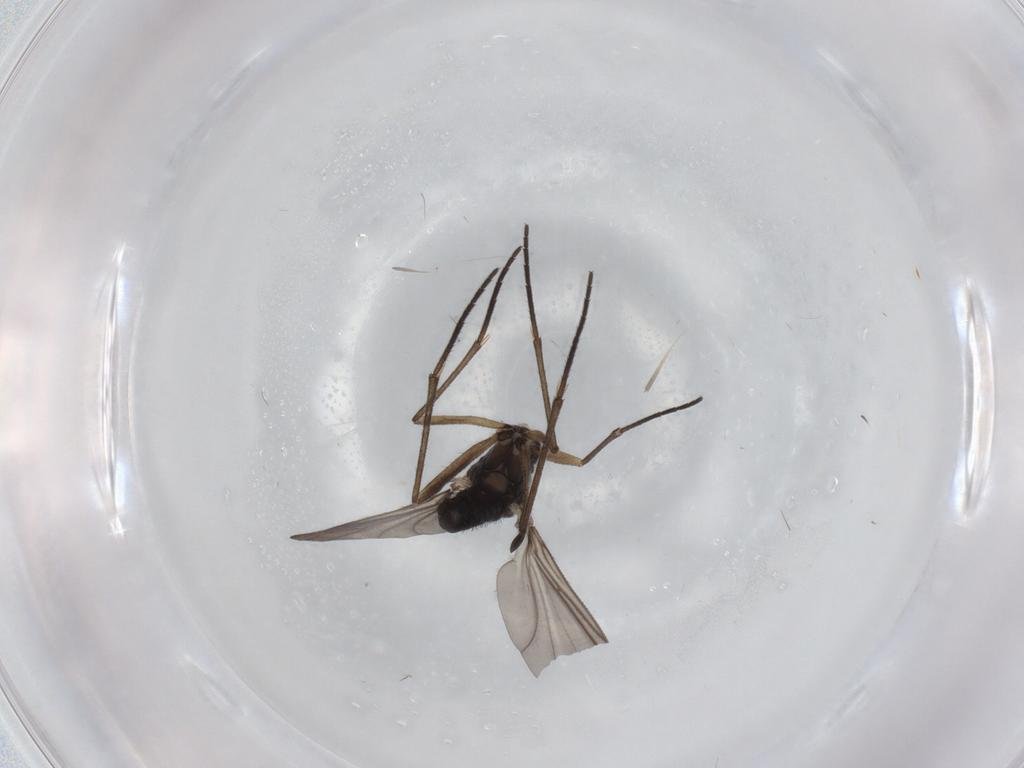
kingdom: Animalia
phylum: Arthropoda
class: Insecta
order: Diptera
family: Sciaridae
